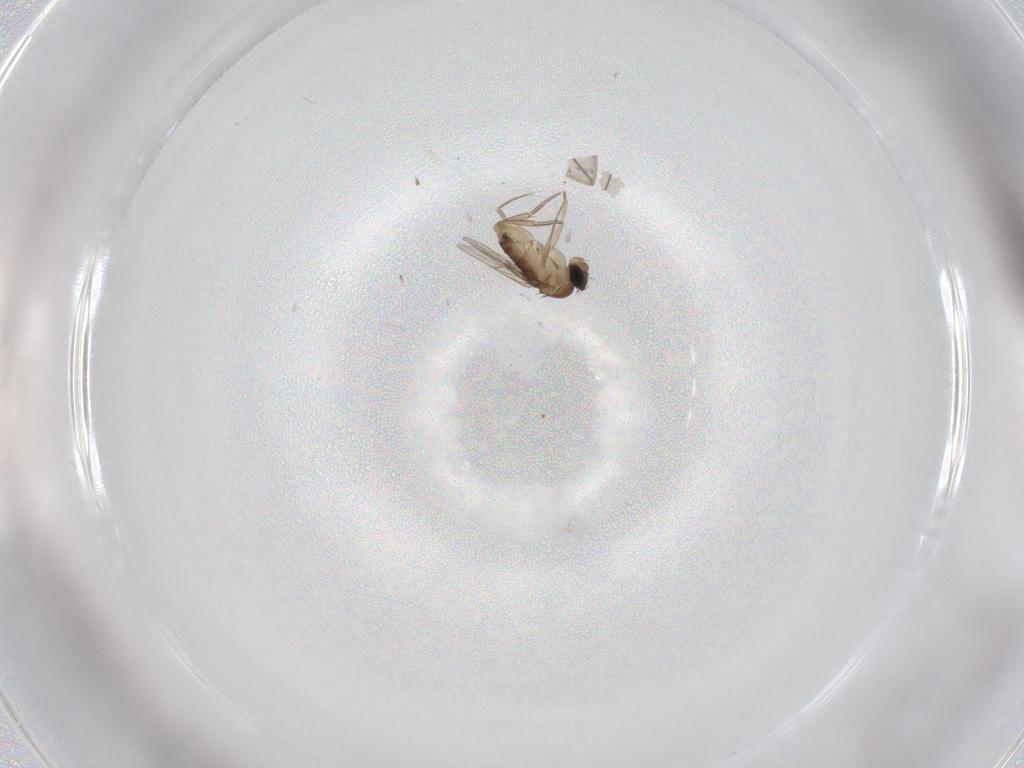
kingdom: Animalia
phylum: Arthropoda
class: Insecta
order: Diptera
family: Phoridae
